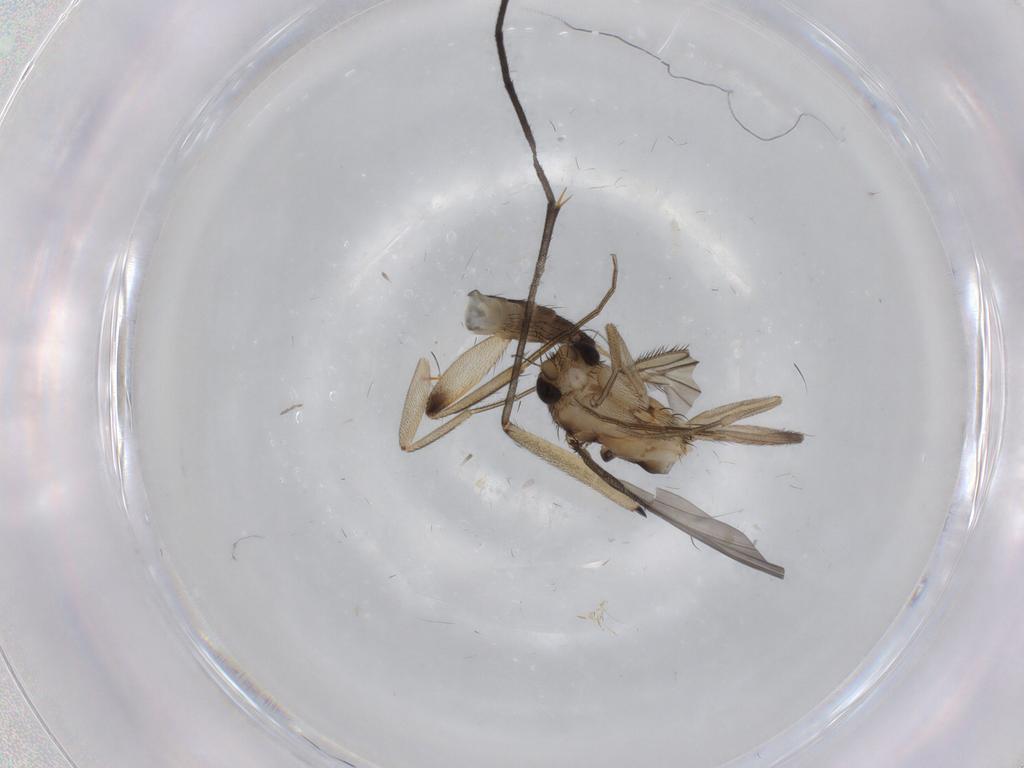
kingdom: Animalia
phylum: Arthropoda
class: Insecta
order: Diptera
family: Phoridae
